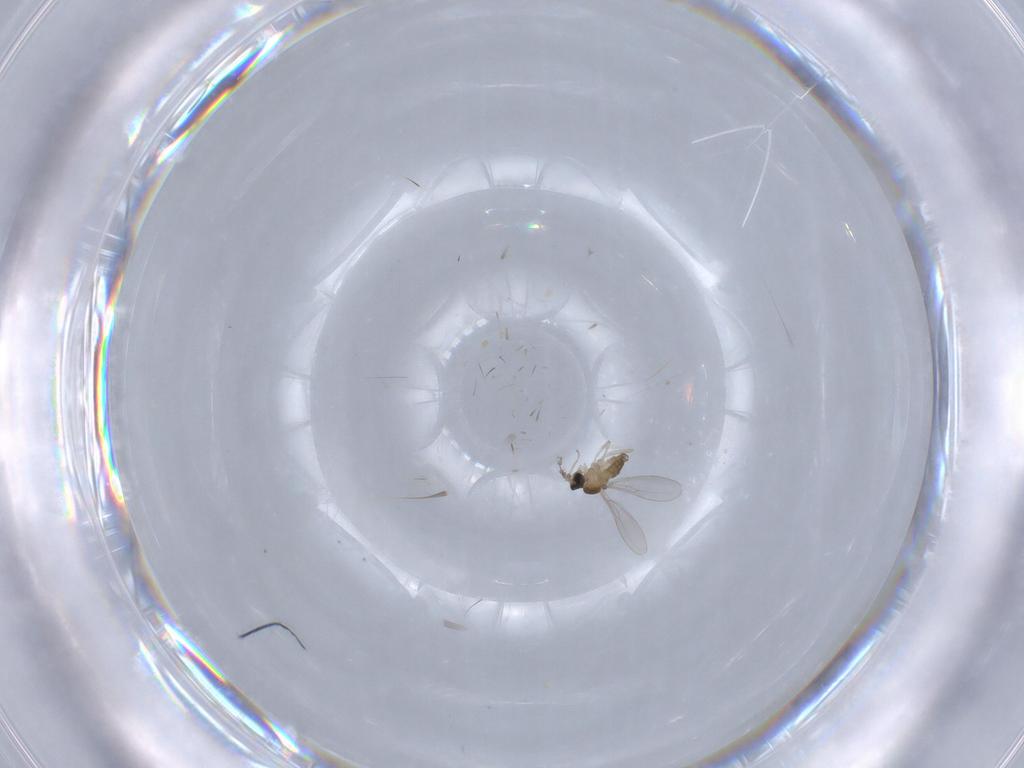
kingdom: Animalia
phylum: Arthropoda
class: Insecta
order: Diptera
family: Cecidomyiidae
